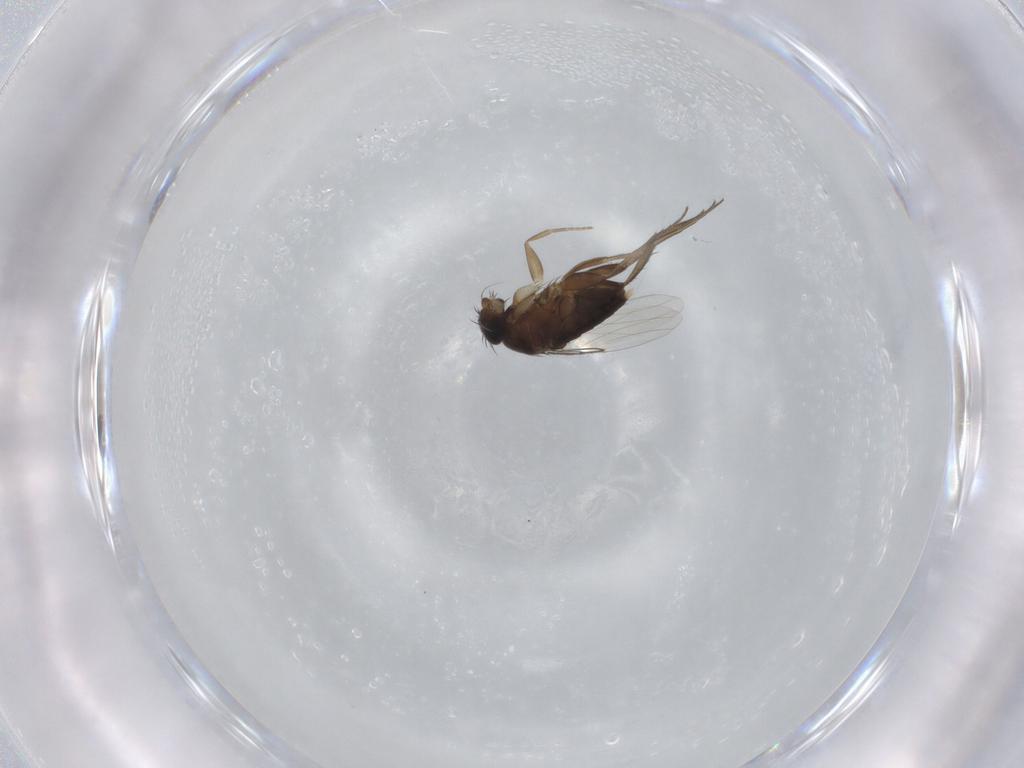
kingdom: Animalia
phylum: Arthropoda
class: Insecta
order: Diptera
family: Phoridae
